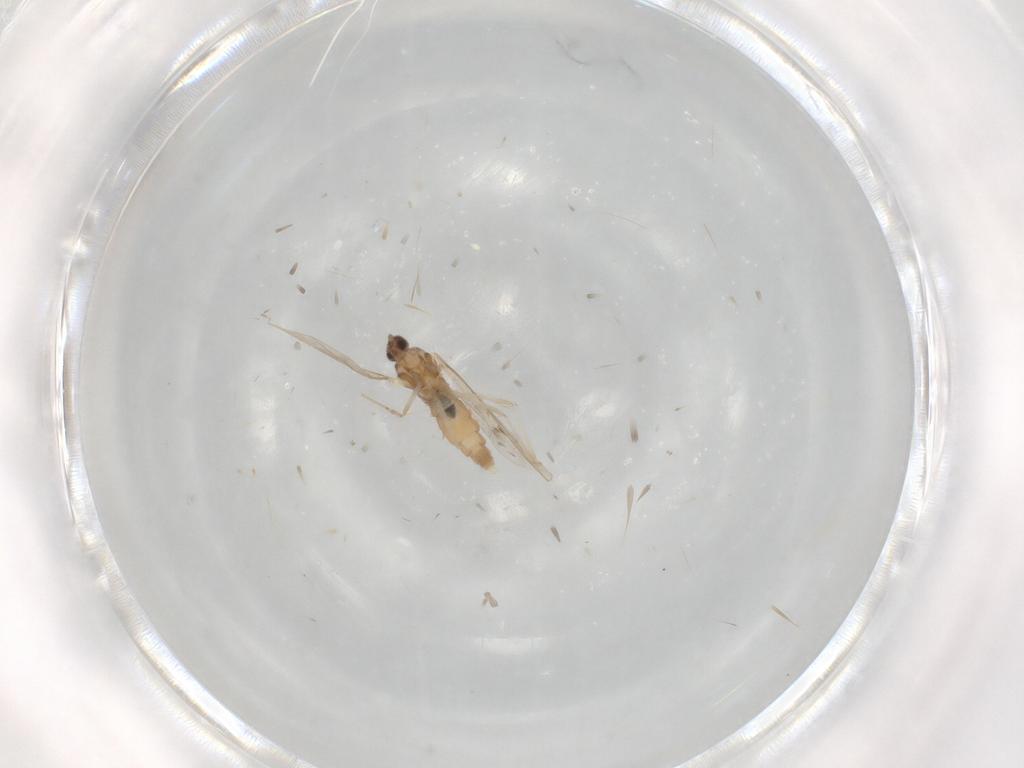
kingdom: Animalia
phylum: Arthropoda
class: Insecta
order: Diptera
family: Cecidomyiidae
